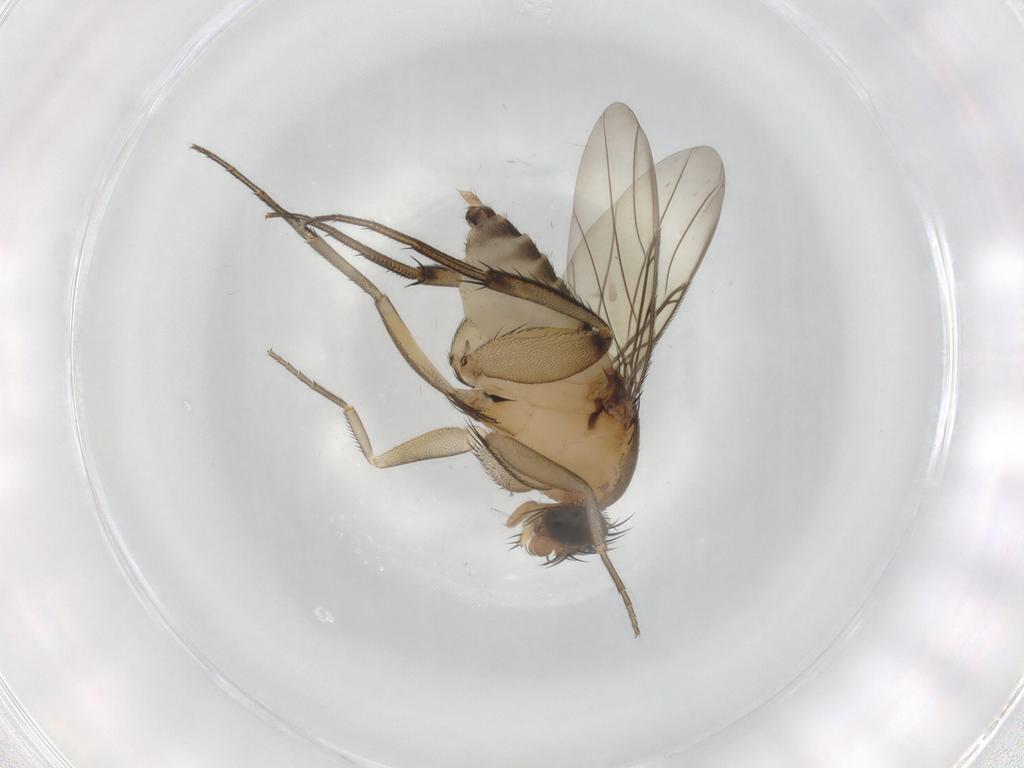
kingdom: Animalia
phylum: Arthropoda
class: Insecta
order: Diptera
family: Phoridae
